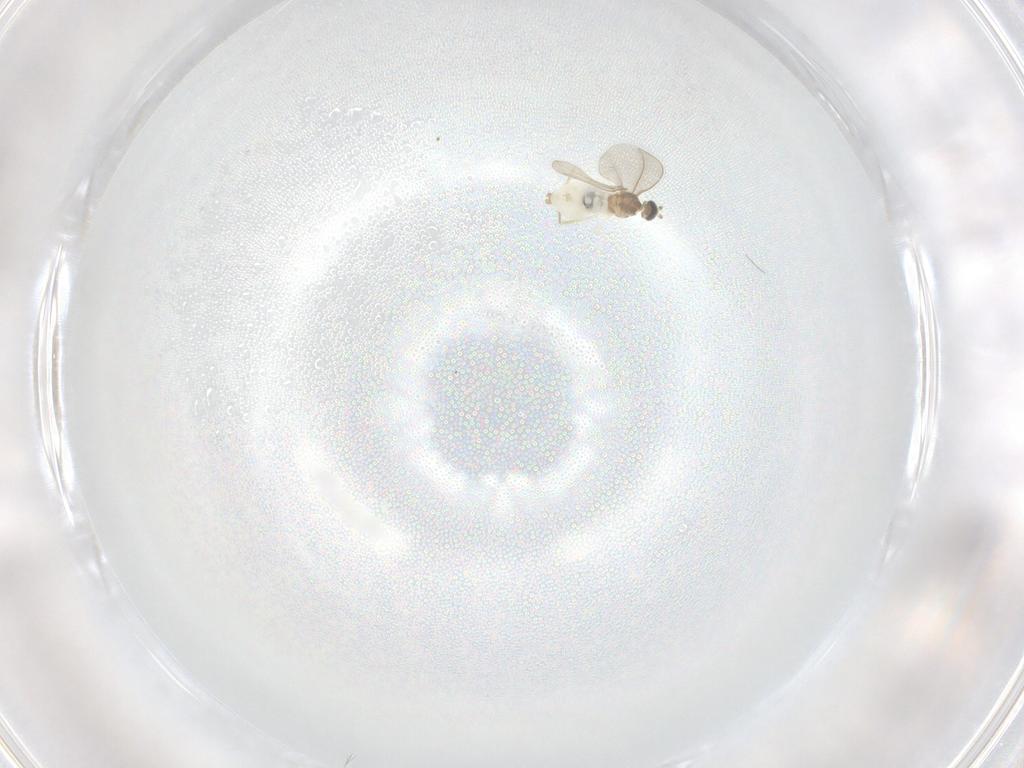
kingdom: Animalia
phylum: Arthropoda
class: Insecta
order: Diptera
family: Cecidomyiidae
